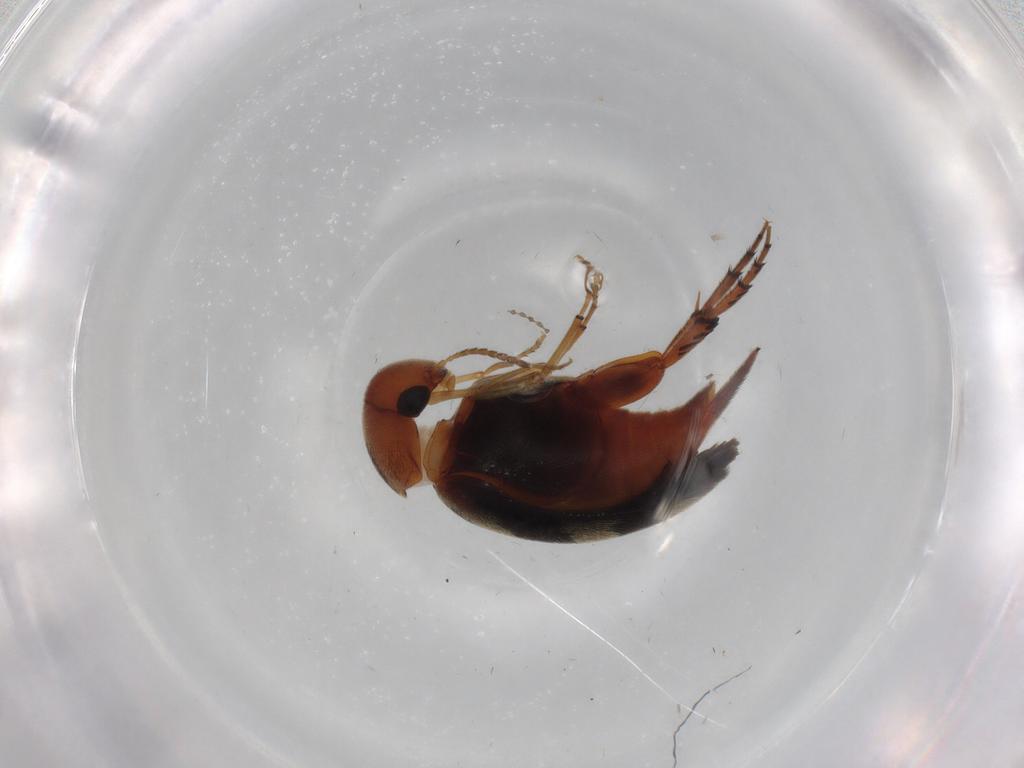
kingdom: Animalia
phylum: Arthropoda
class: Insecta
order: Coleoptera
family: Mordellidae
